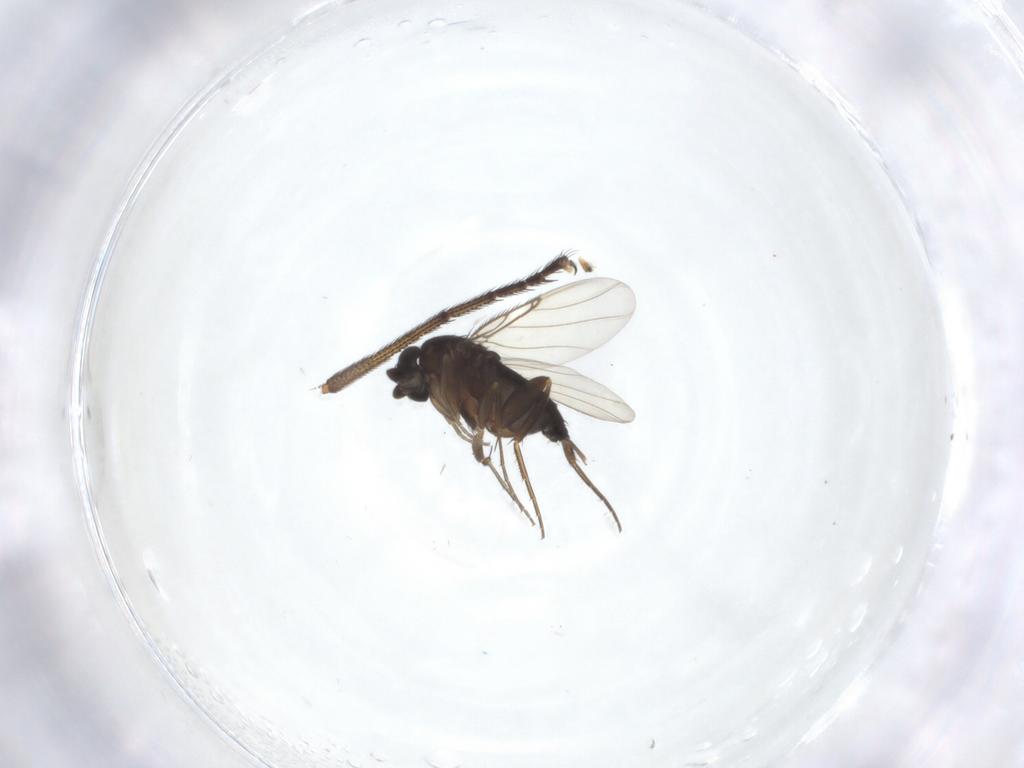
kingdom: Animalia
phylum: Arthropoda
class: Insecta
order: Diptera
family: Phoridae
